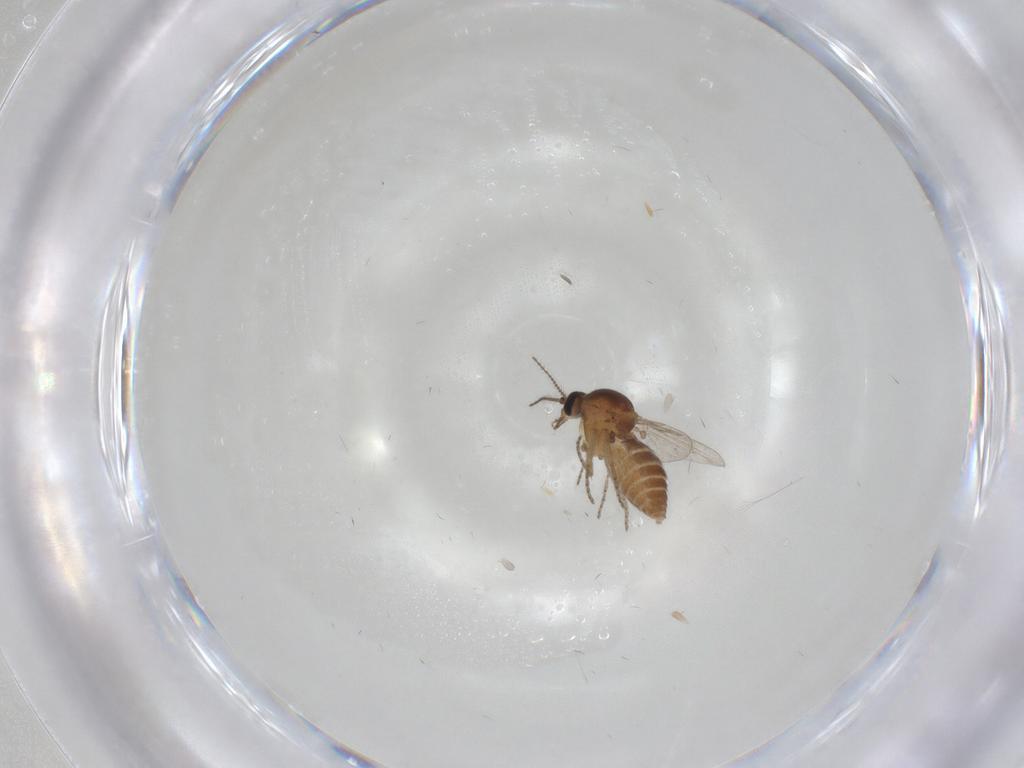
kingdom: Animalia
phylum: Arthropoda
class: Insecta
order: Diptera
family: Ceratopogonidae
